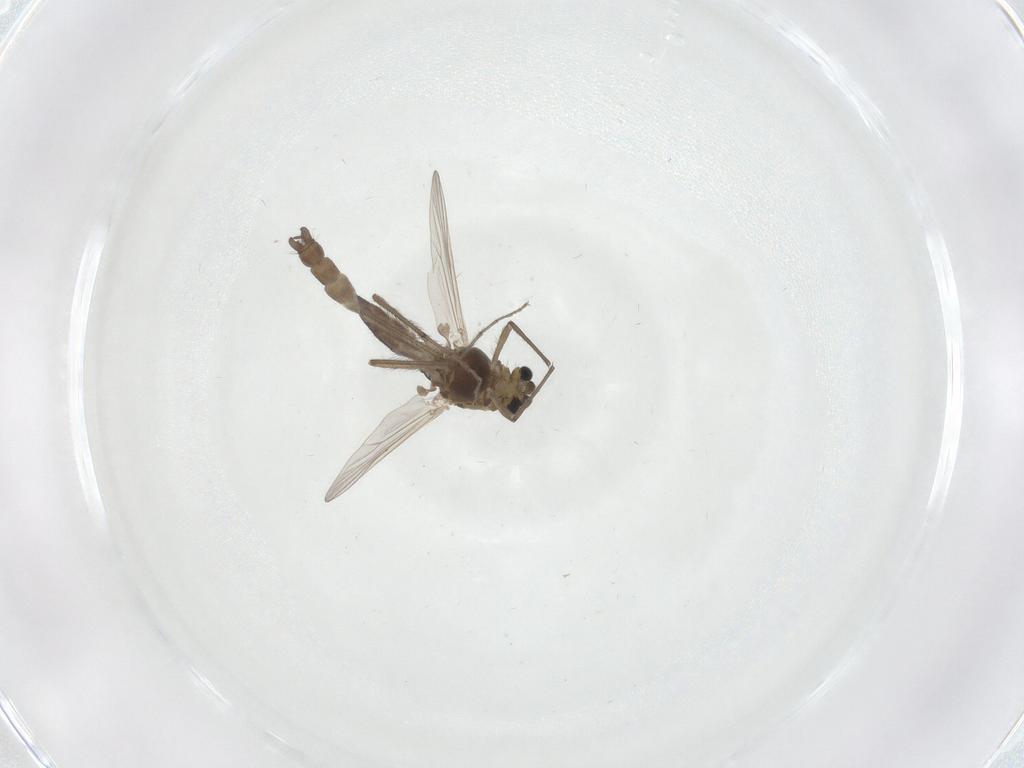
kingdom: Animalia
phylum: Arthropoda
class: Insecta
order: Diptera
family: Chironomidae
